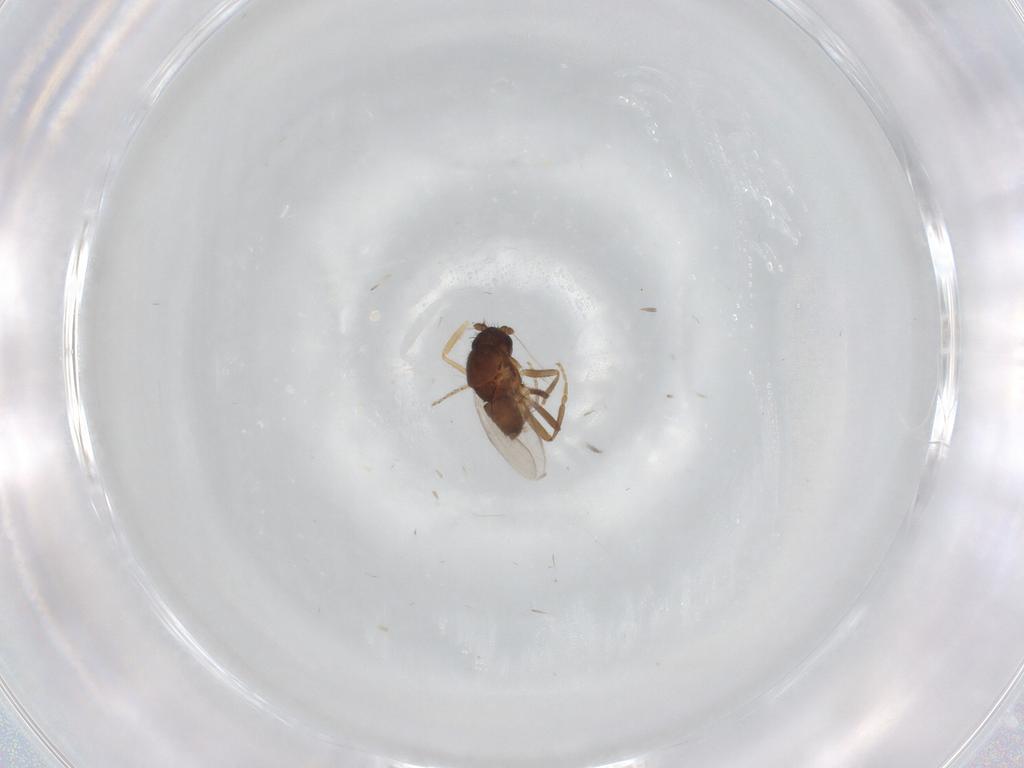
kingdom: Animalia
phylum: Arthropoda
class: Insecta
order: Diptera
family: Sphaeroceridae
